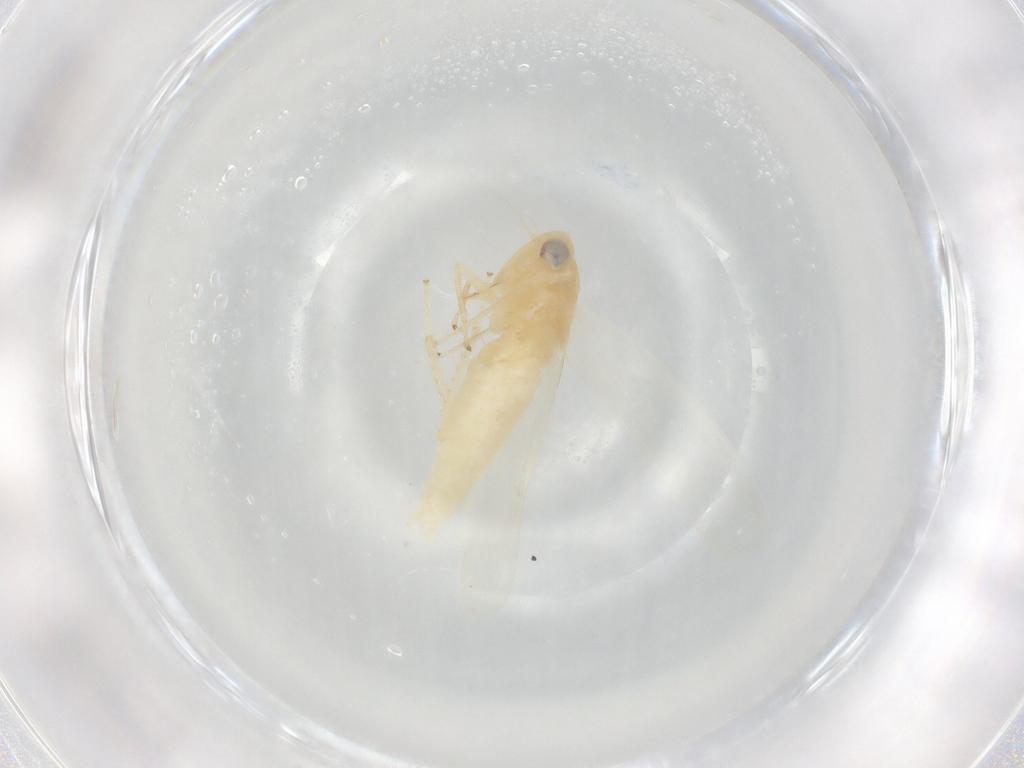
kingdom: Animalia
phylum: Arthropoda
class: Insecta
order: Hemiptera
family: Cicadellidae
